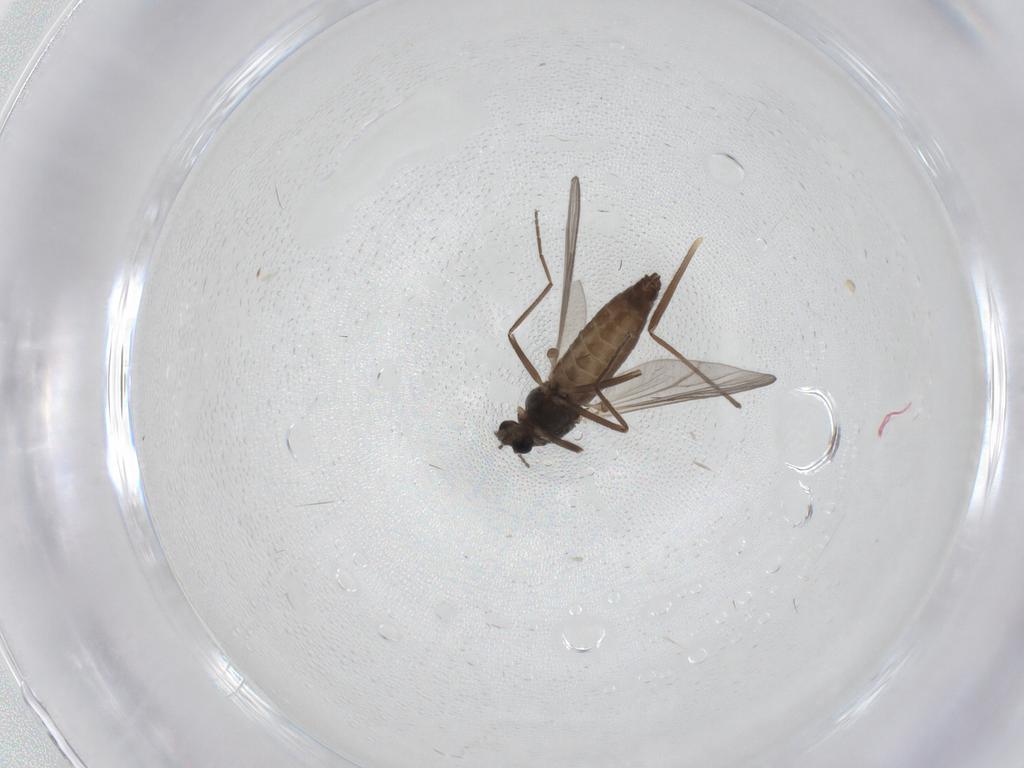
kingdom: Animalia
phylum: Arthropoda
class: Insecta
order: Diptera
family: Chironomidae
